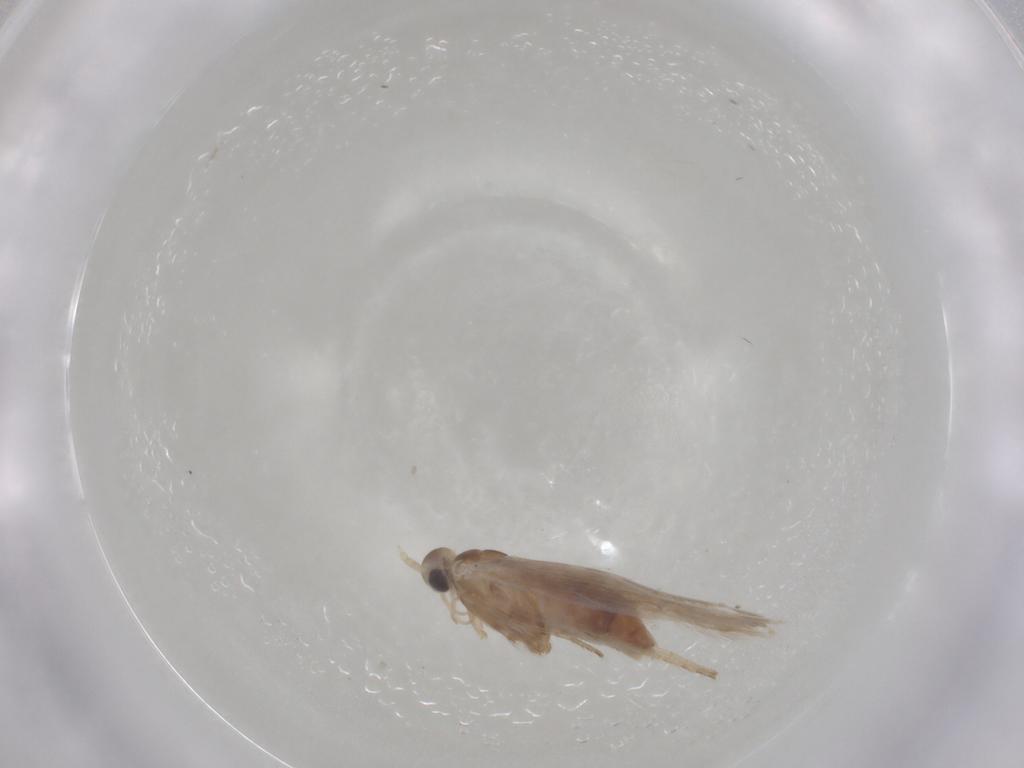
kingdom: Animalia
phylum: Arthropoda
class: Insecta
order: Lepidoptera
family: Coleophoridae
